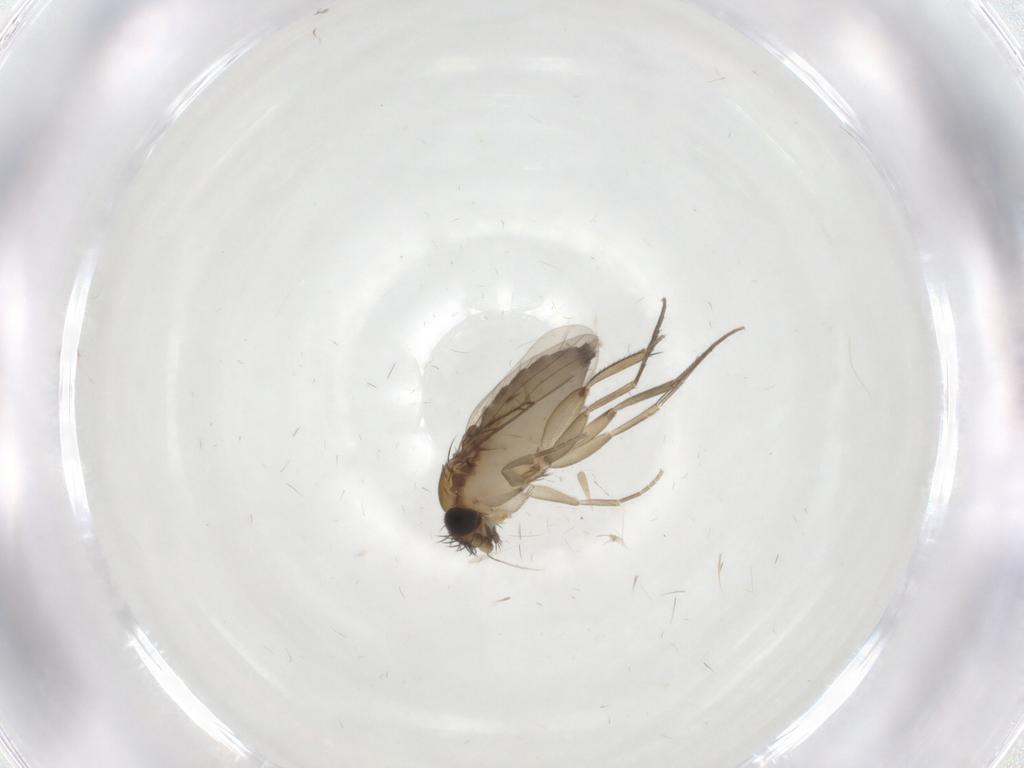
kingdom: Animalia
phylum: Arthropoda
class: Insecta
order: Diptera
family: Phoridae
